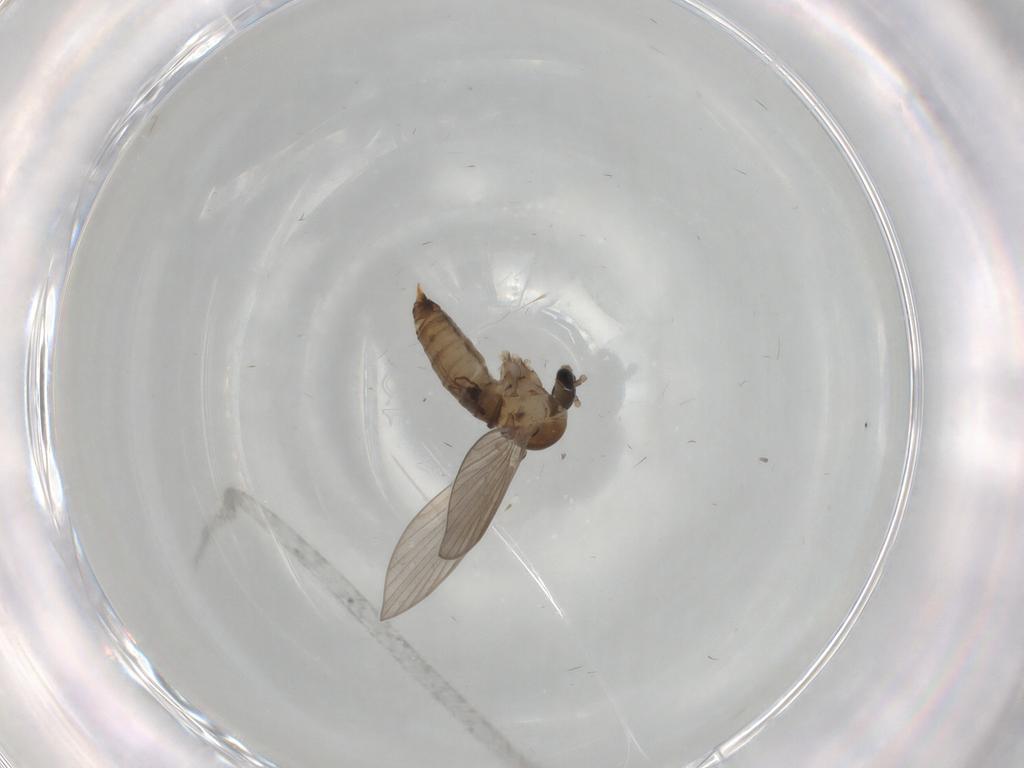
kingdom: Animalia
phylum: Arthropoda
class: Insecta
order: Diptera
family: Psychodidae
